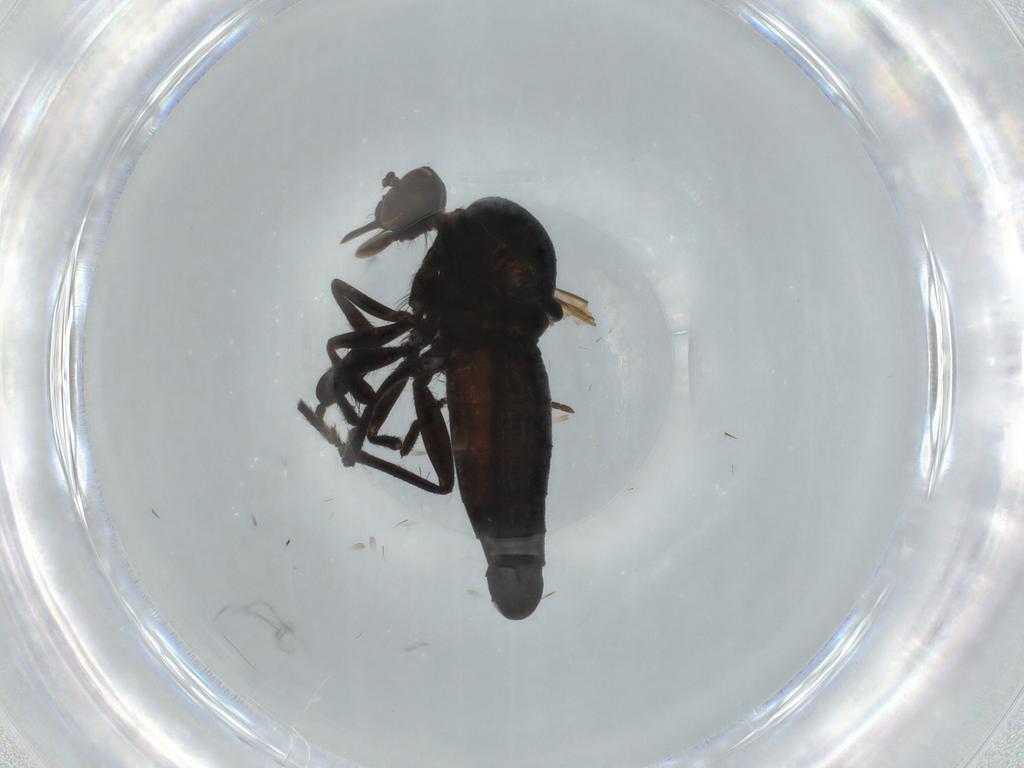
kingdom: Animalia
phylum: Arthropoda
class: Insecta
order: Diptera
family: Empididae
